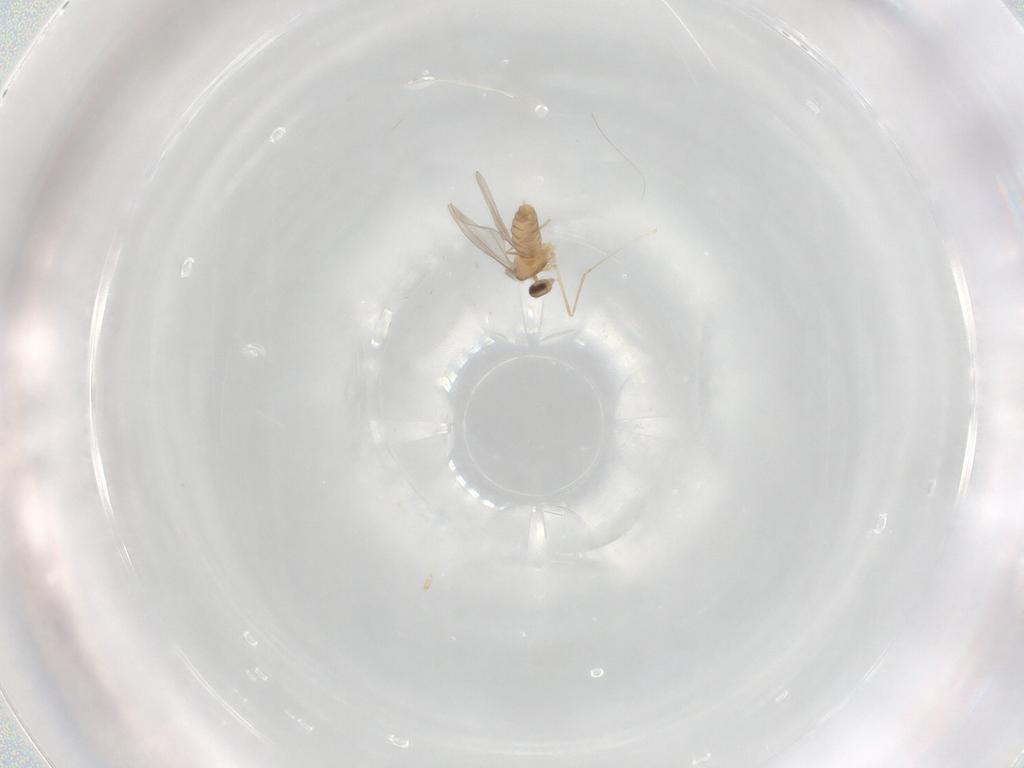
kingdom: Animalia
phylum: Arthropoda
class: Insecta
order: Diptera
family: Cecidomyiidae
